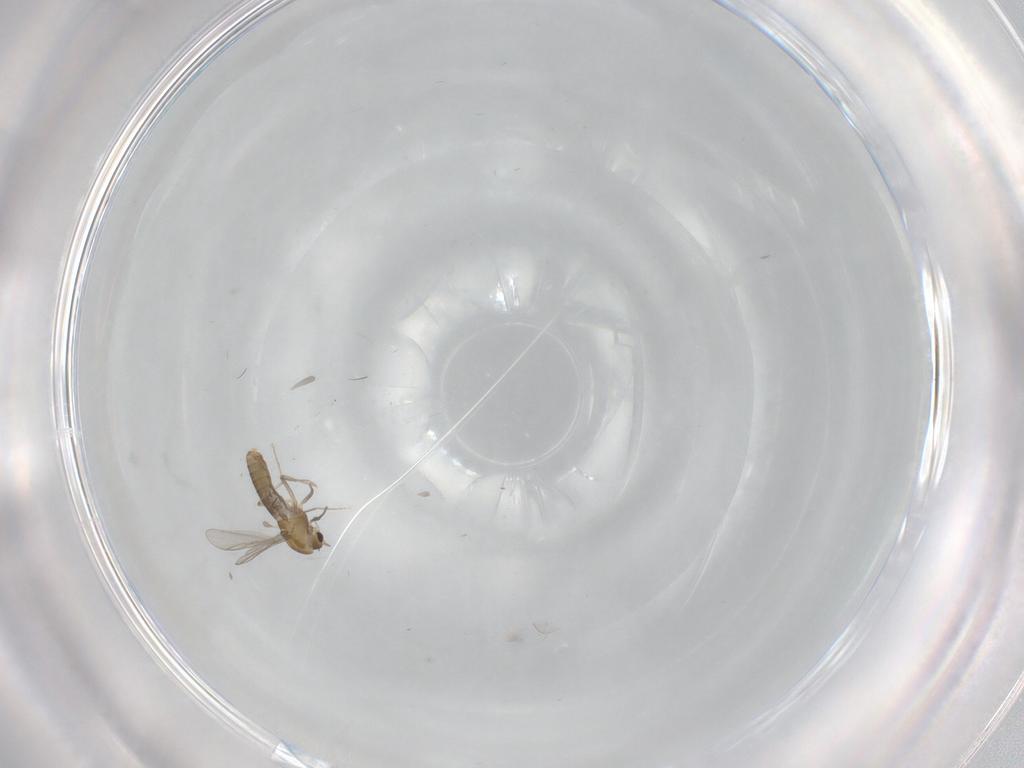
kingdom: Animalia
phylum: Arthropoda
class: Insecta
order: Diptera
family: Chironomidae
